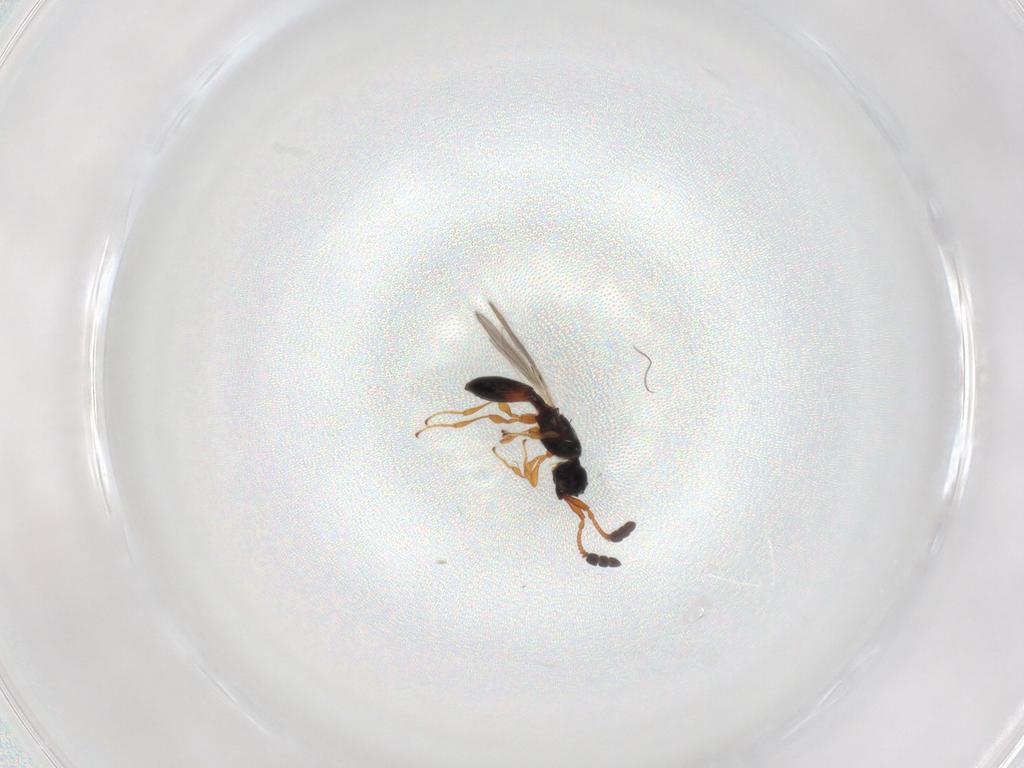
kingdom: Animalia
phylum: Arthropoda
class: Insecta
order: Hymenoptera
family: Diapriidae
